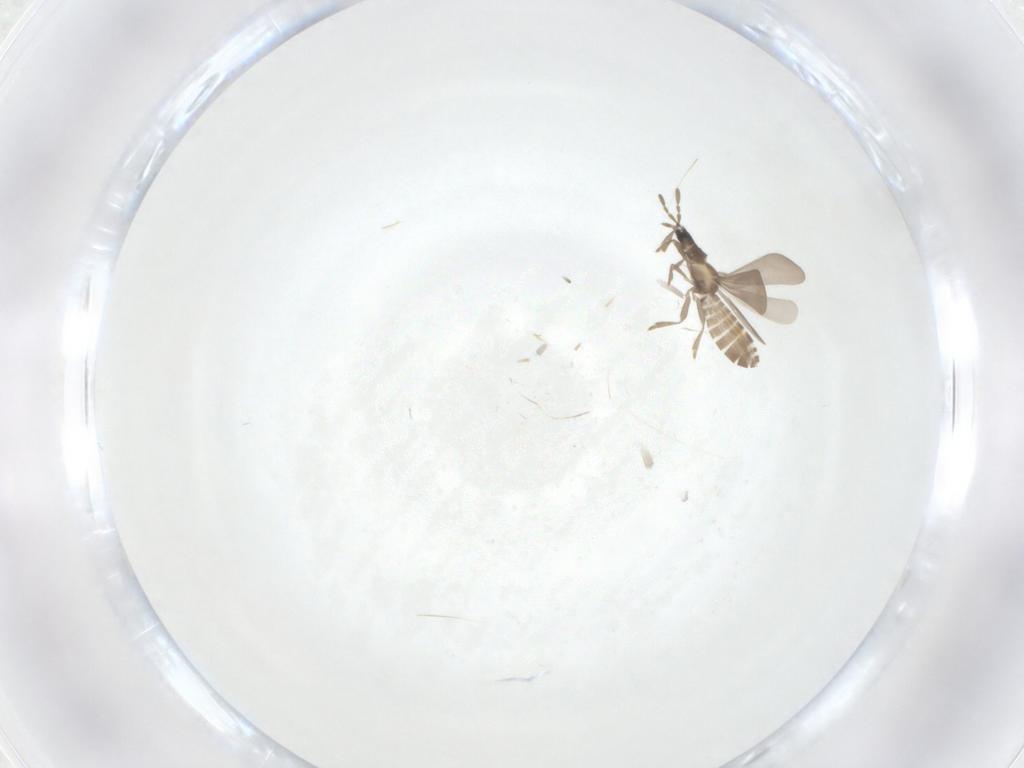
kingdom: Animalia
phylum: Arthropoda
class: Insecta
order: Hemiptera
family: Enicocephalidae
